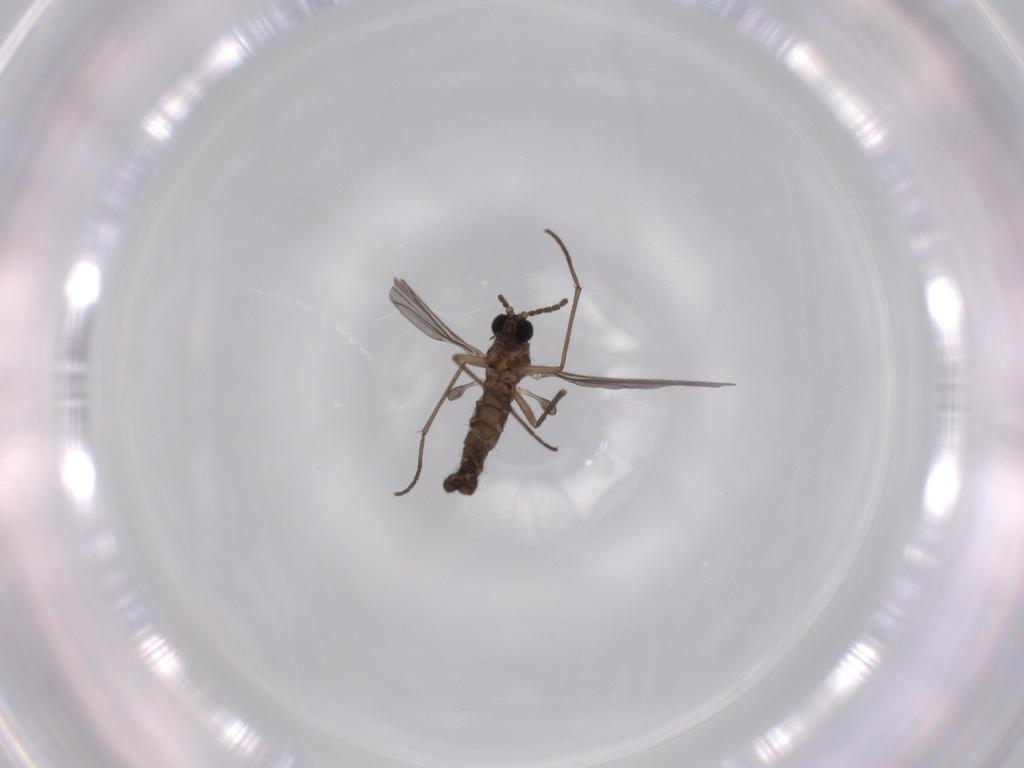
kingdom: Animalia
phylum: Arthropoda
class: Insecta
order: Diptera
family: Sciaridae
